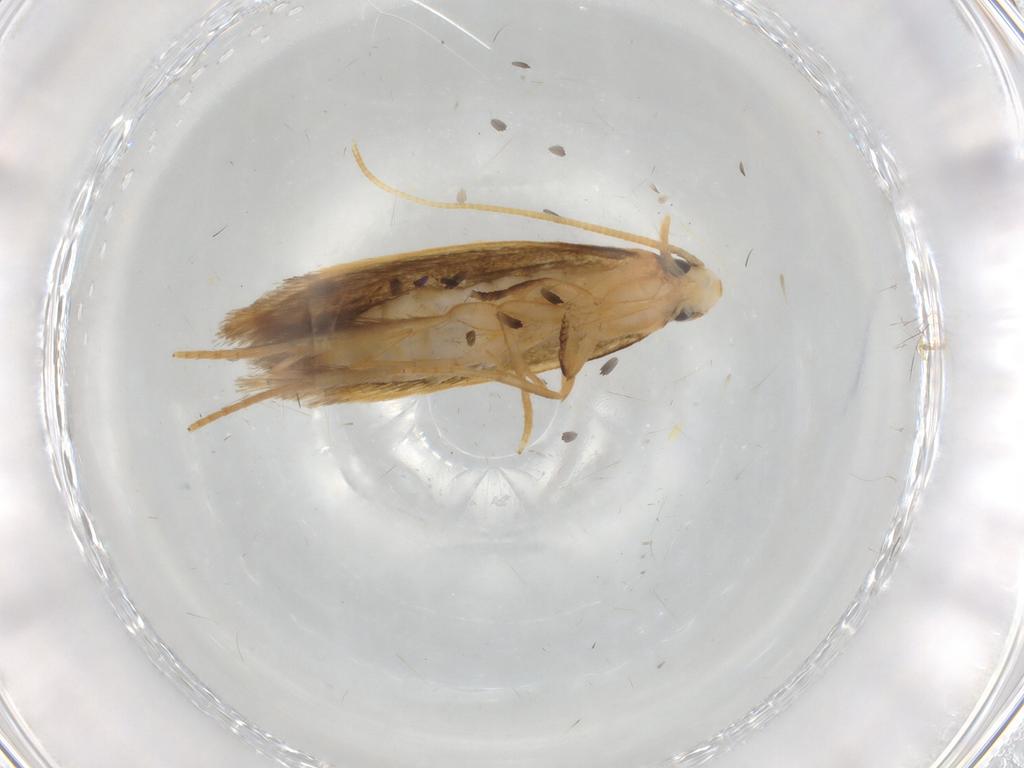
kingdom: Animalia
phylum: Arthropoda
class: Insecta
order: Lepidoptera
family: Tineidae
